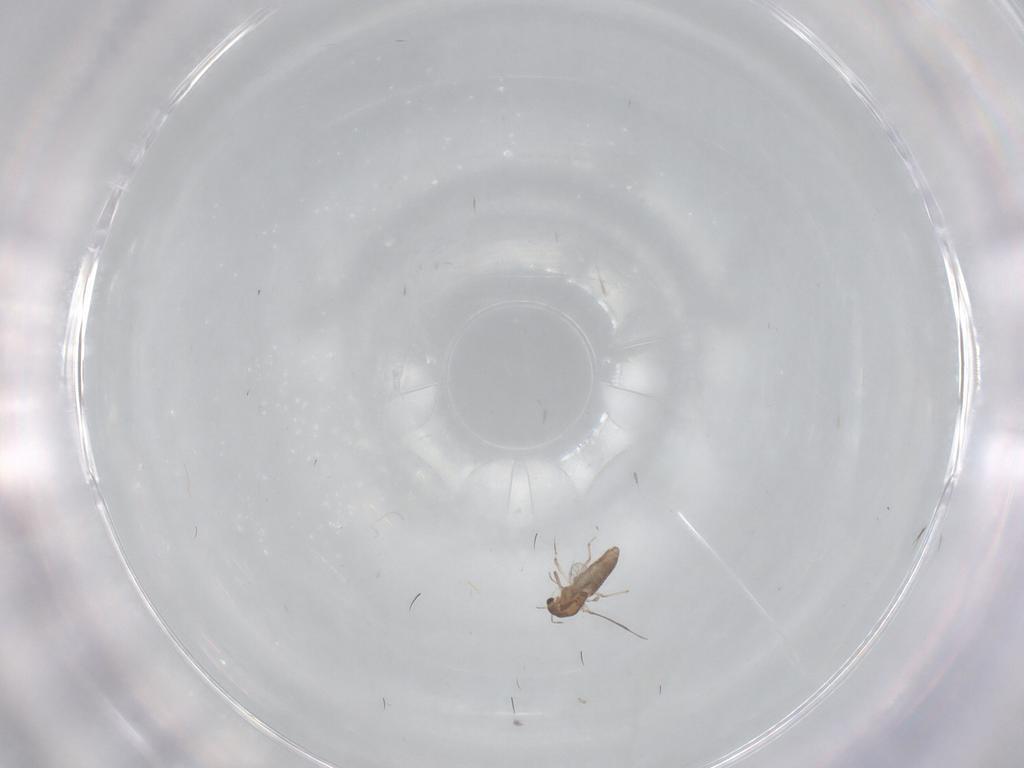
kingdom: Animalia
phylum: Arthropoda
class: Insecta
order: Diptera
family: Chironomidae
